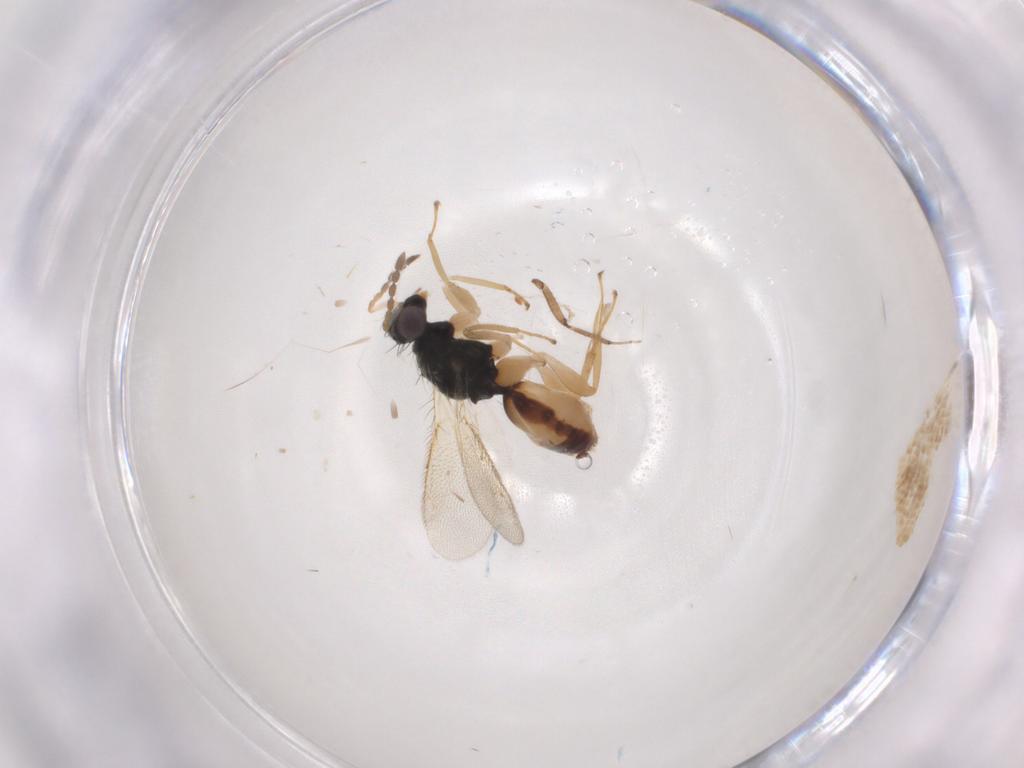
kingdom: Animalia
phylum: Arthropoda
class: Insecta
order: Hymenoptera
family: Eulophidae
